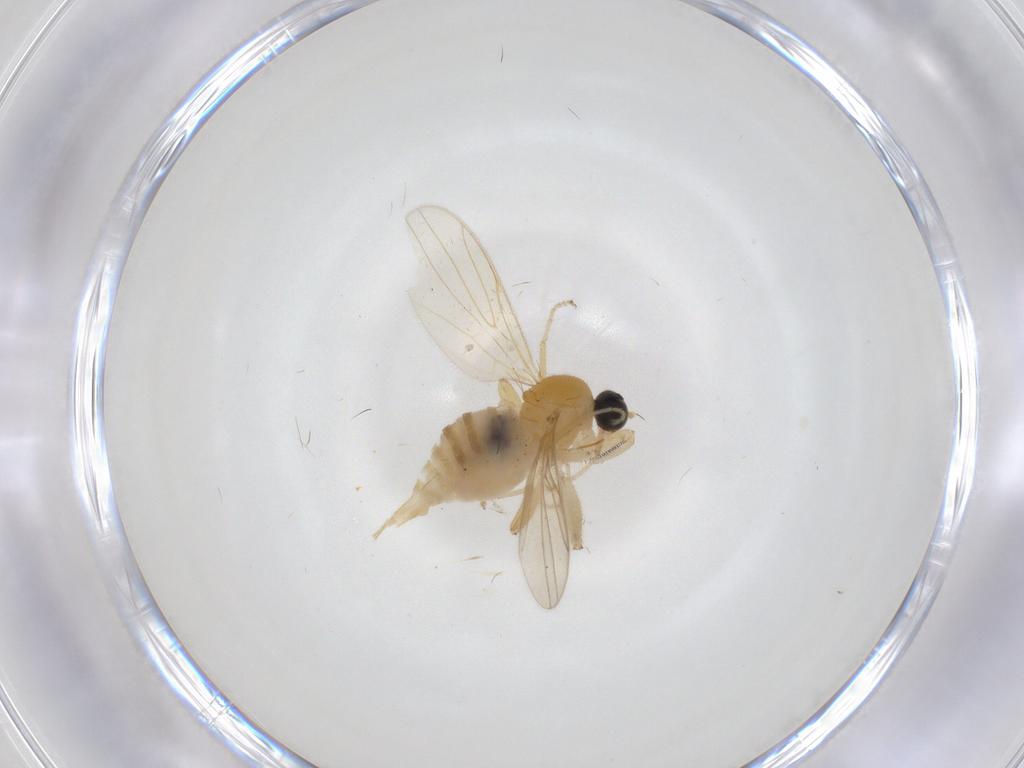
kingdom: Animalia
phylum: Arthropoda
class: Insecta
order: Diptera
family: Cecidomyiidae
